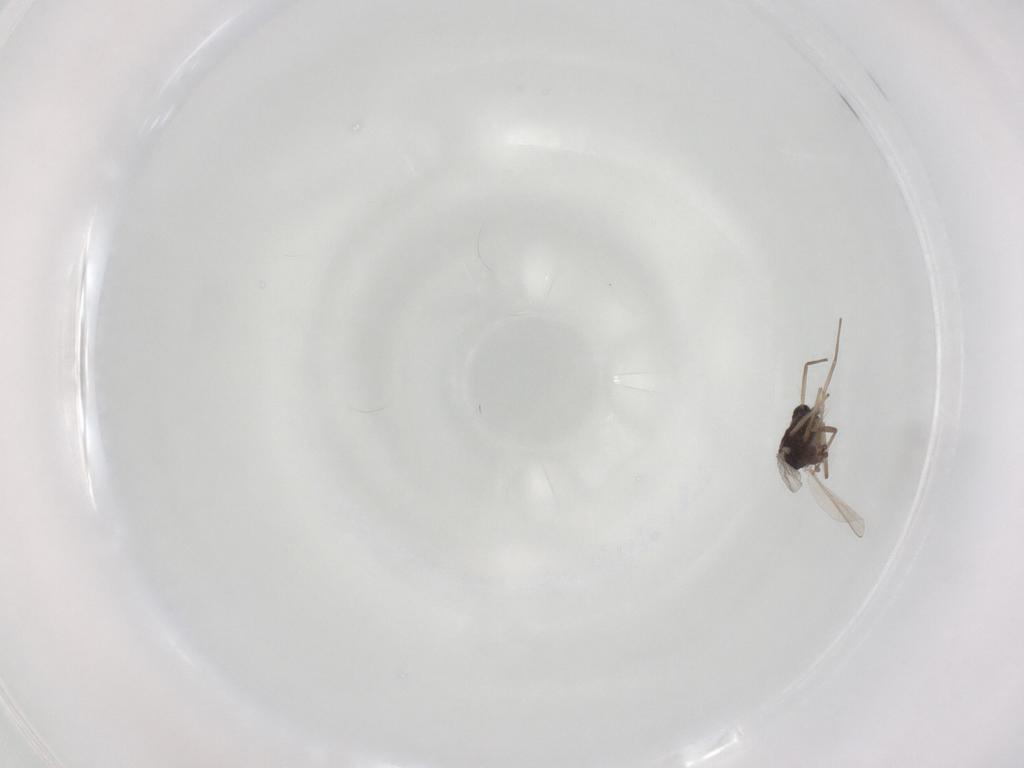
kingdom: Animalia
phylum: Arthropoda
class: Insecta
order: Diptera
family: Chironomidae
